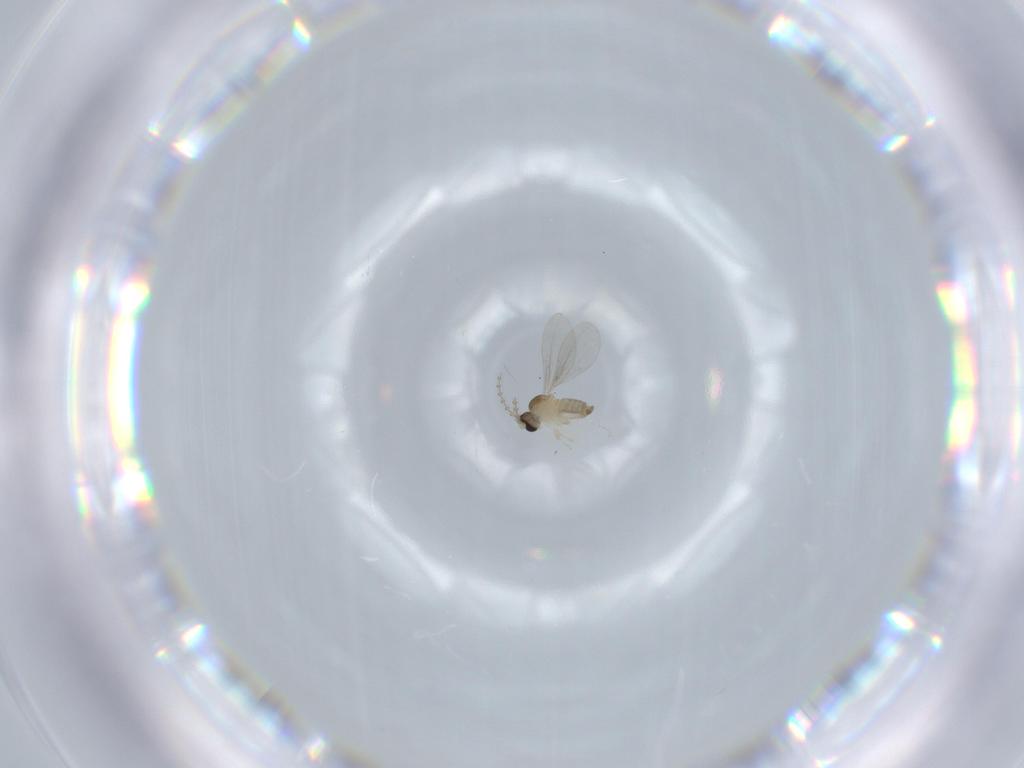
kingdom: Animalia
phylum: Arthropoda
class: Insecta
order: Diptera
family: Cecidomyiidae
